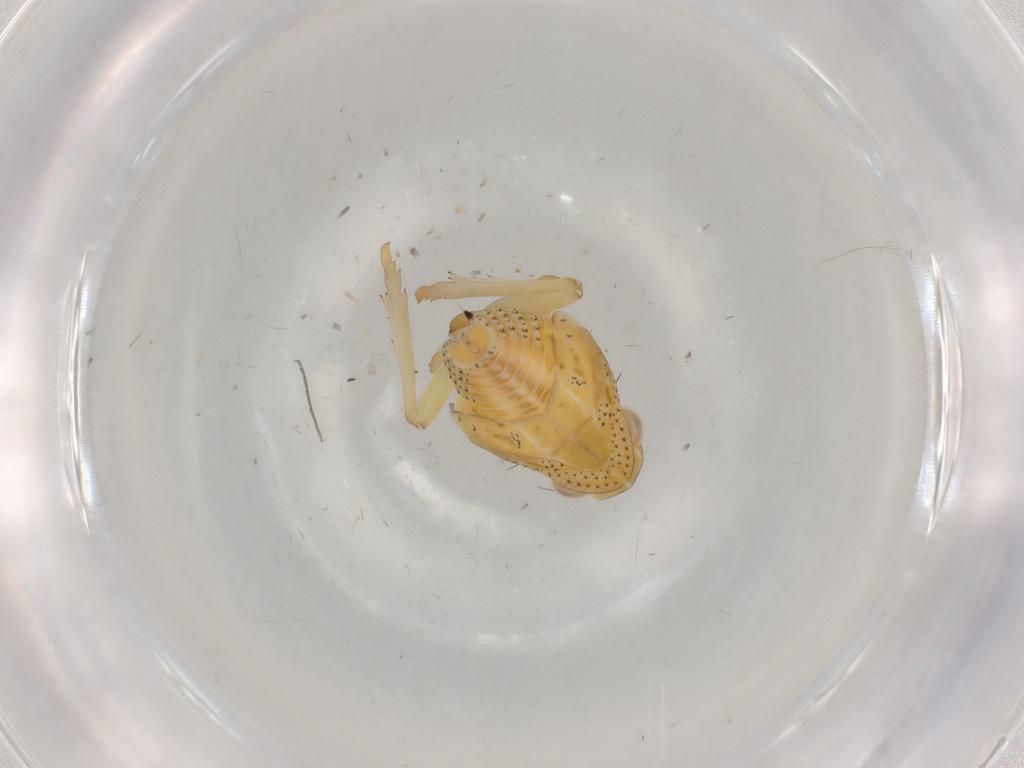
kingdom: Animalia
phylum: Arthropoda
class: Insecta
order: Hemiptera
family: Tropiduchidae
